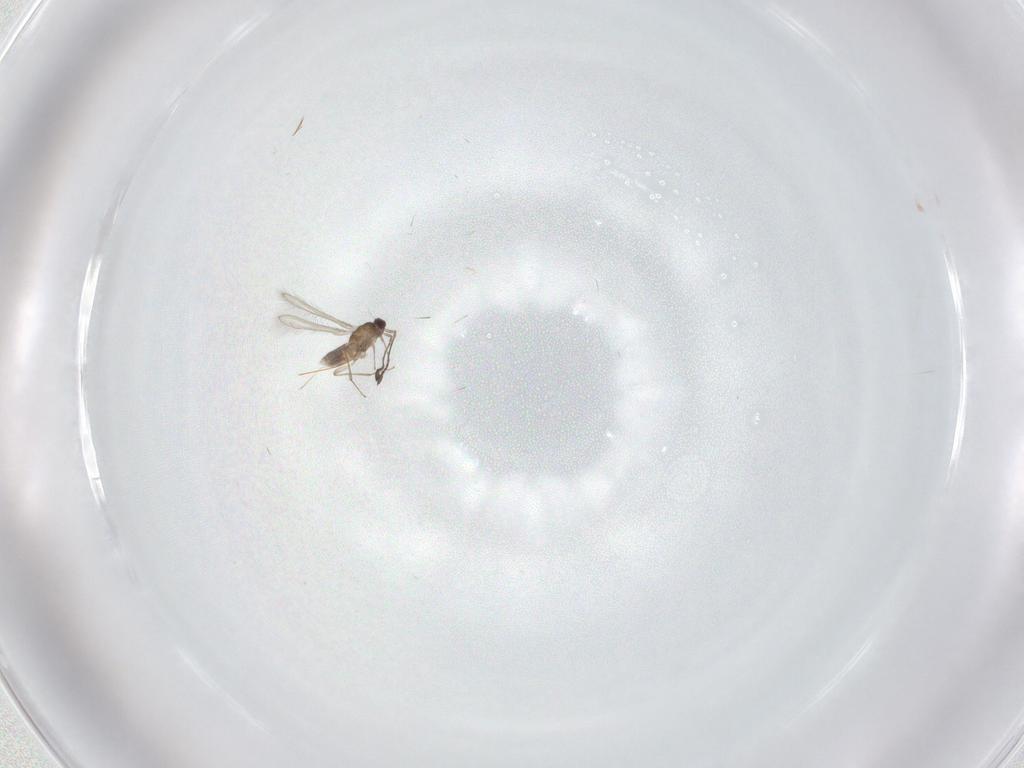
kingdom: Animalia
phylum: Arthropoda
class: Insecta
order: Hymenoptera
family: Mymaridae
